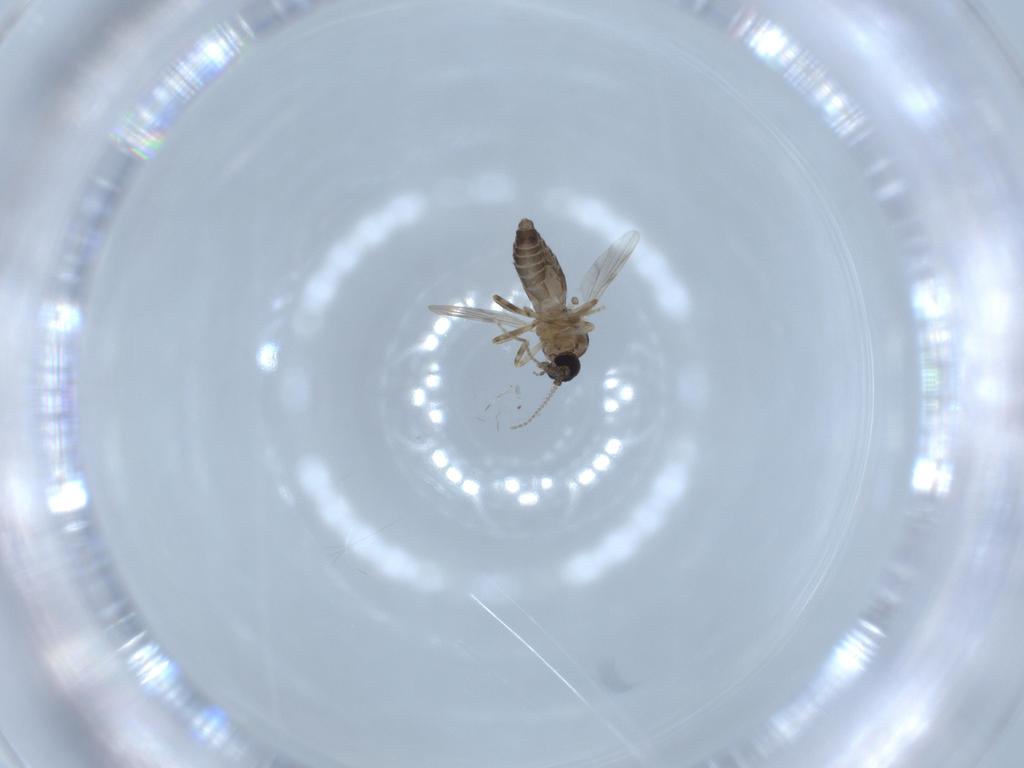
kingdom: Animalia
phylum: Arthropoda
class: Insecta
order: Diptera
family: Ceratopogonidae
